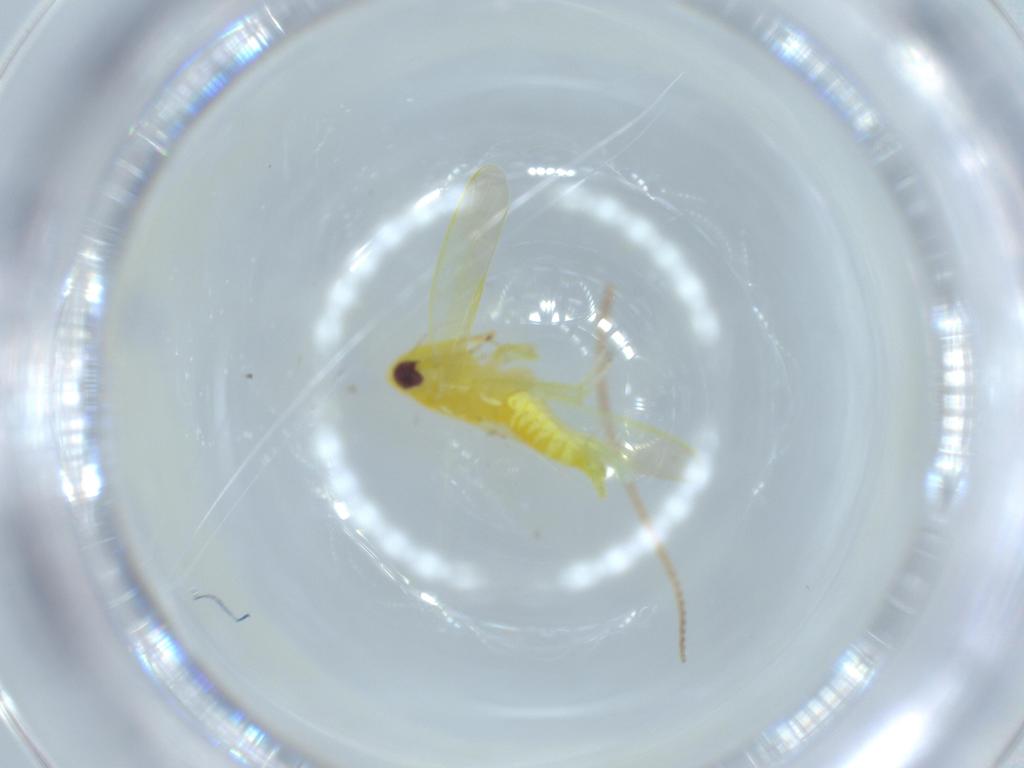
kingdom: Animalia
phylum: Arthropoda
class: Insecta
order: Hemiptera
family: Cicadellidae
